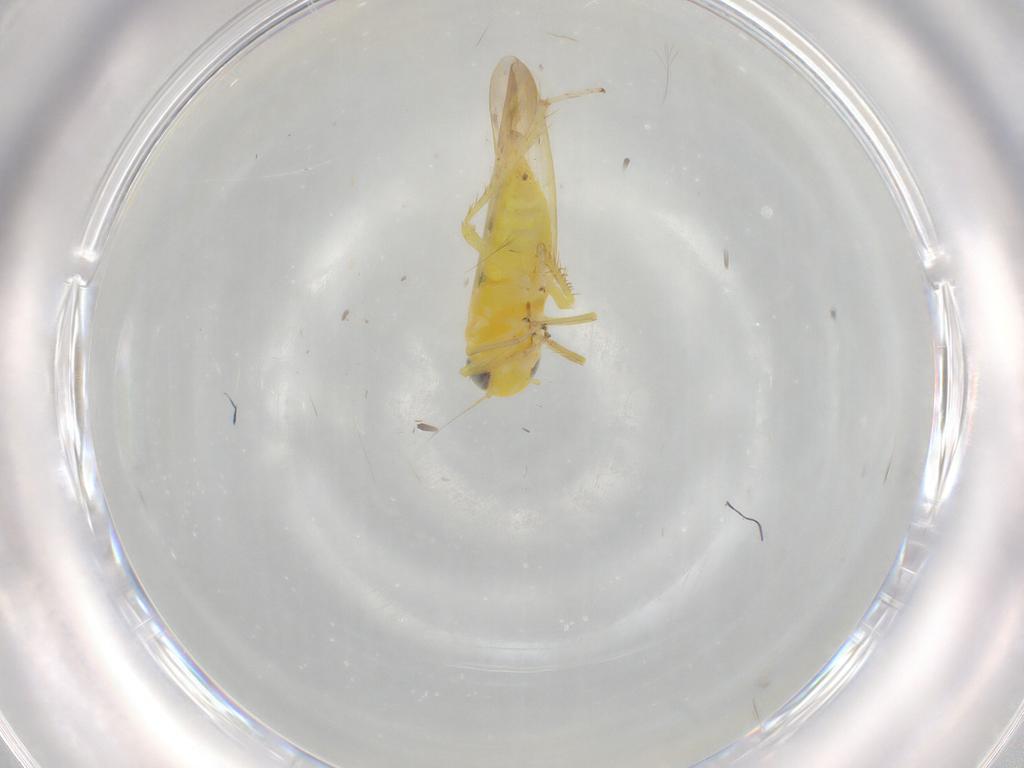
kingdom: Animalia
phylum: Arthropoda
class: Insecta
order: Hemiptera
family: Cicadellidae
